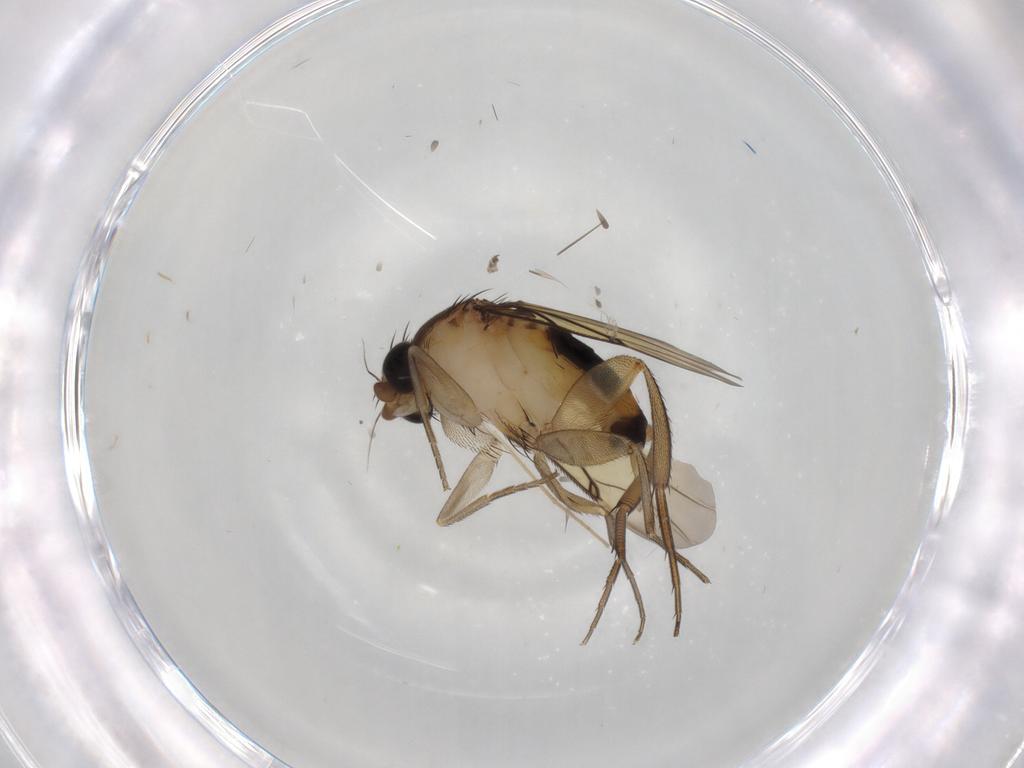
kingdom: Animalia
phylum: Arthropoda
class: Insecta
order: Diptera
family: Chironomidae
